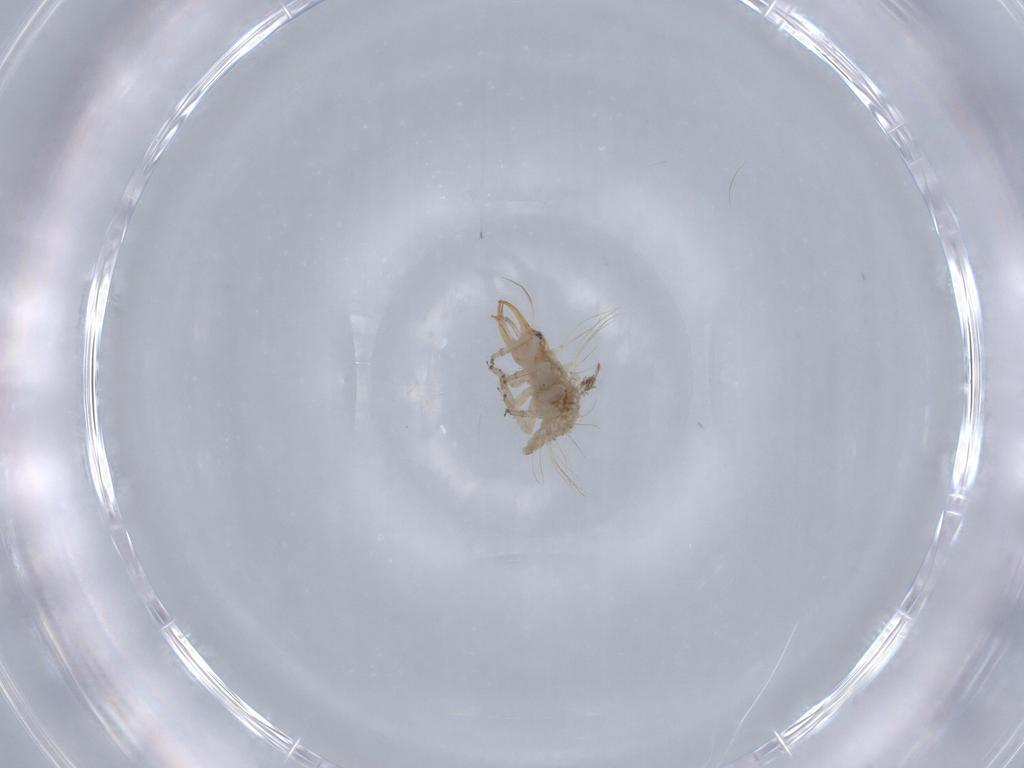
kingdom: Animalia
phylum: Arthropoda
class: Insecta
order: Neuroptera
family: Chrysopidae
